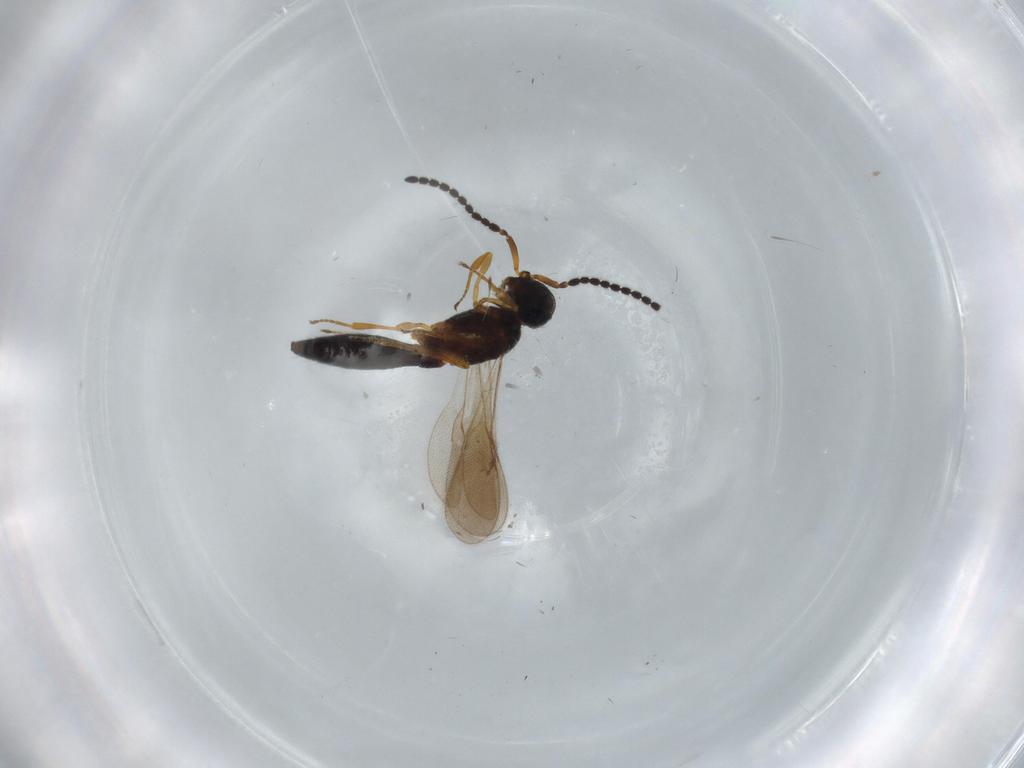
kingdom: Animalia
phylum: Arthropoda
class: Insecta
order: Hymenoptera
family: Scelionidae
